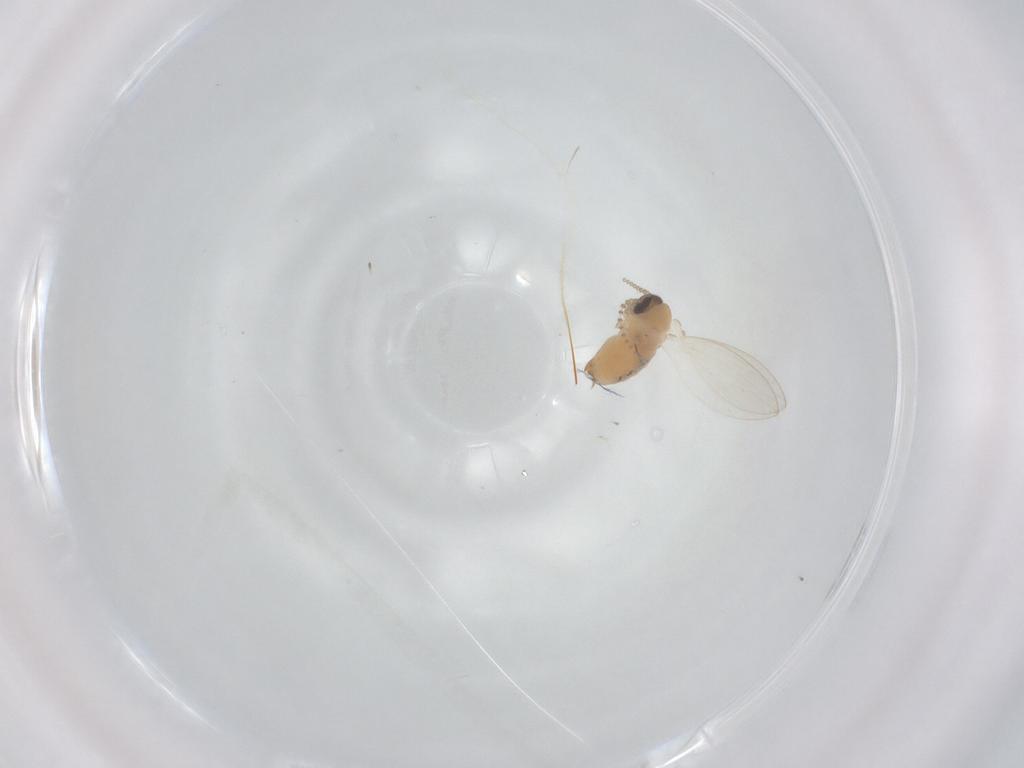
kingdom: Animalia
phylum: Arthropoda
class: Insecta
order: Diptera
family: Psychodidae
